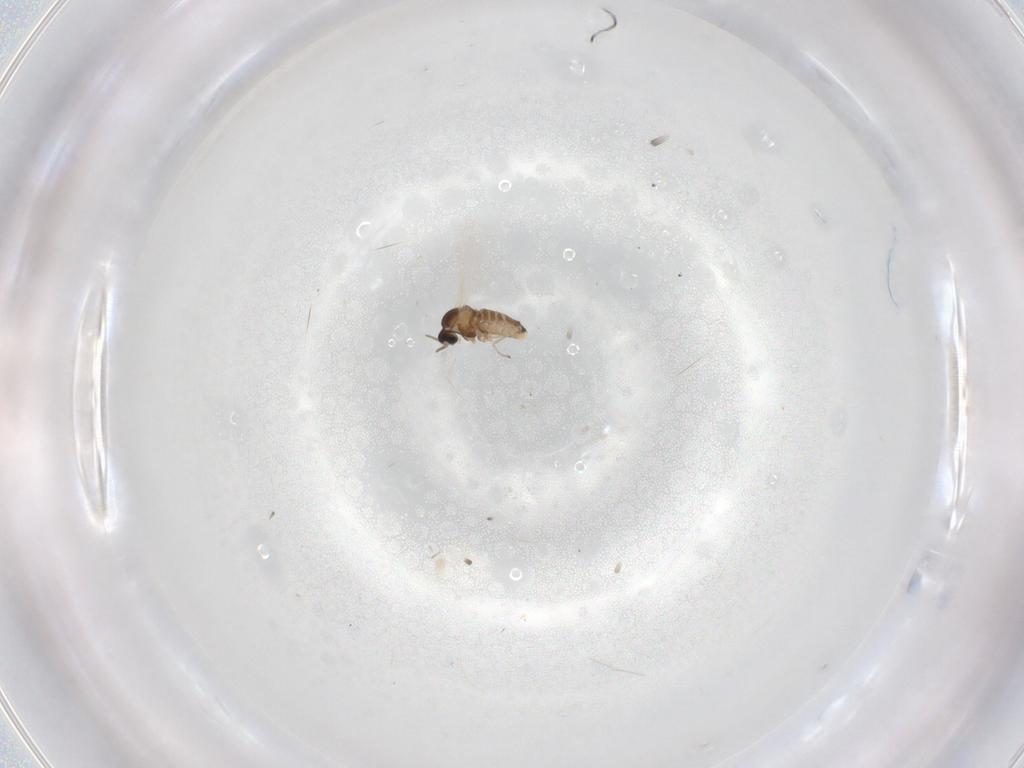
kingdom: Animalia
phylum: Arthropoda
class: Insecta
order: Diptera
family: Cecidomyiidae
